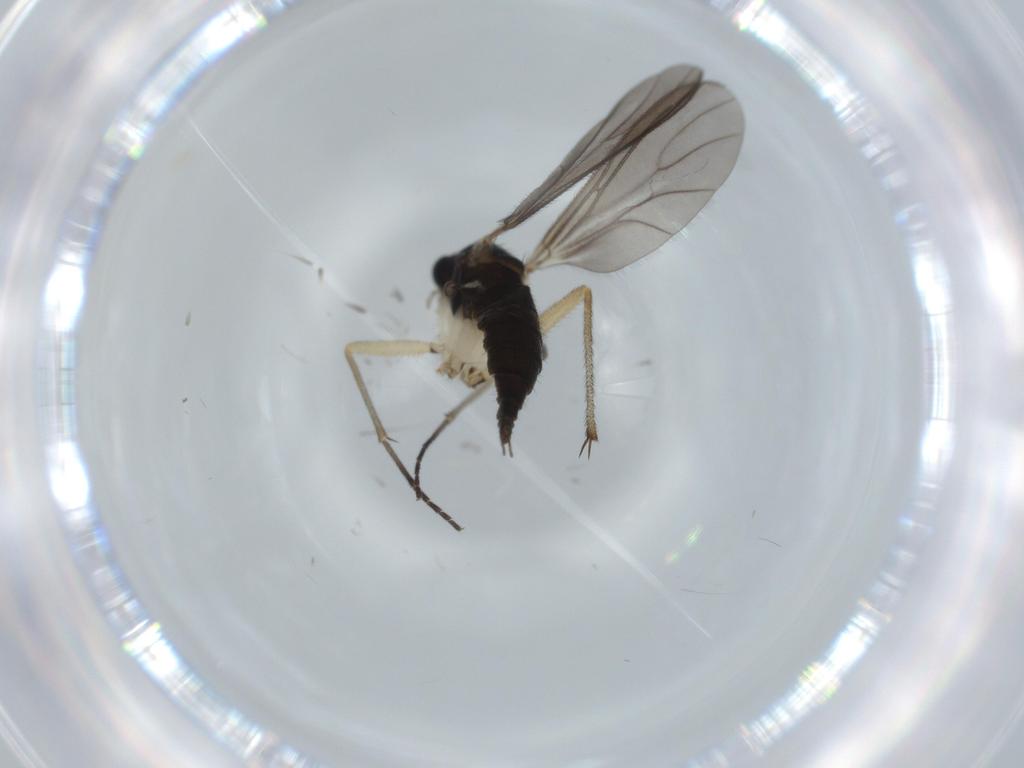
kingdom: Animalia
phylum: Arthropoda
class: Insecta
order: Diptera
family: Sciaridae
